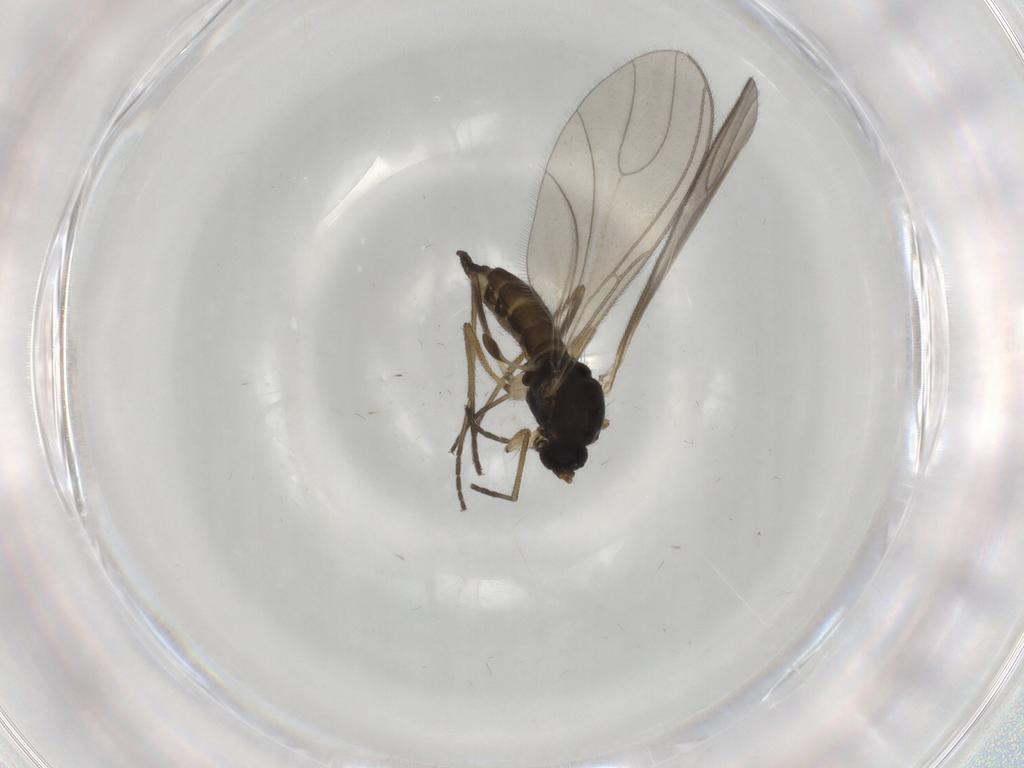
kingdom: Animalia
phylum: Arthropoda
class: Insecta
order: Diptera
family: Sciaridae
